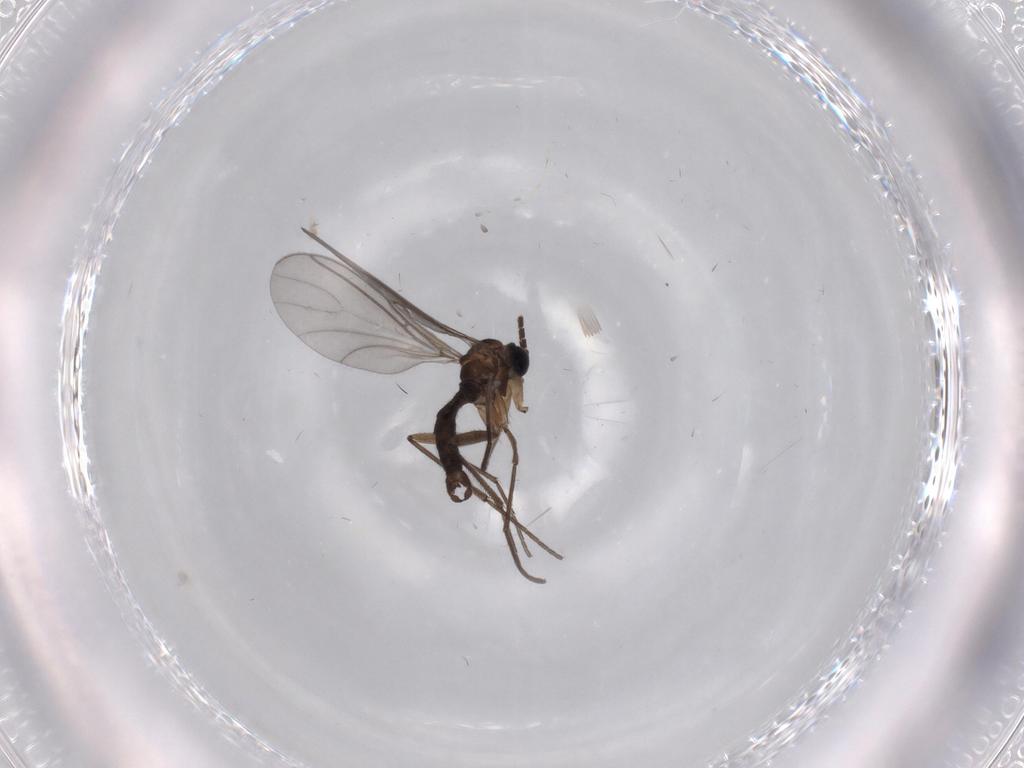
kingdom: Animalia
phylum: Arthropoda
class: Insecta
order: Diptera
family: Sciaridae
